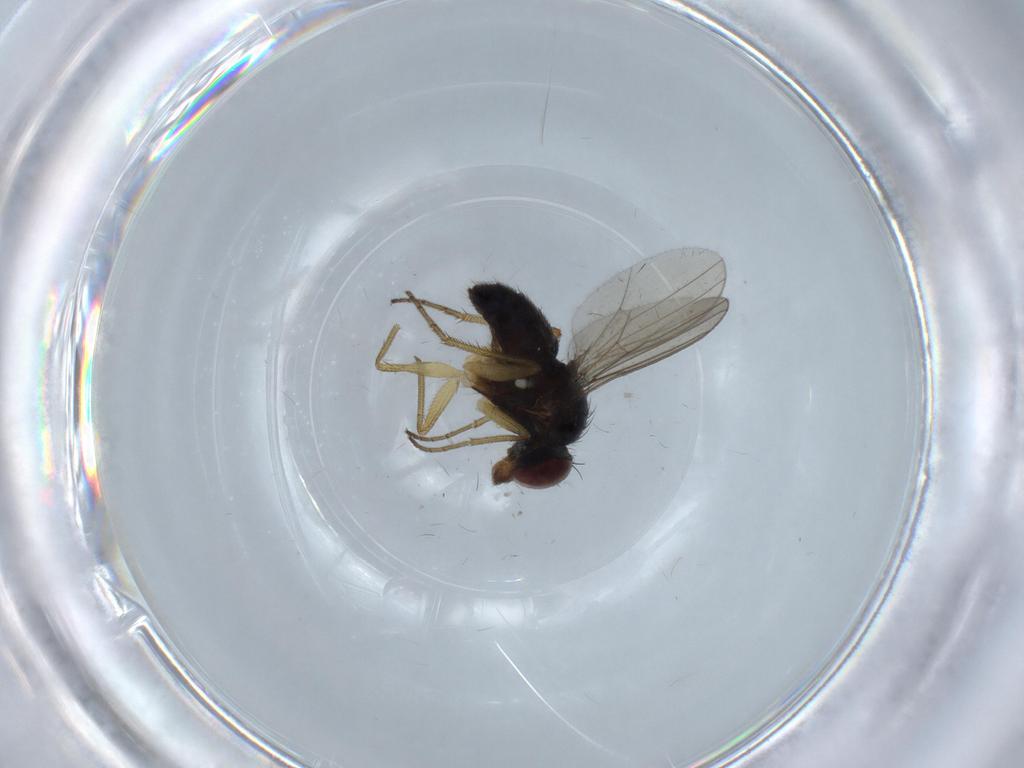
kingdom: Animalia
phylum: Arthropoda
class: Insecta
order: Diptera
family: Dolichopodidae
